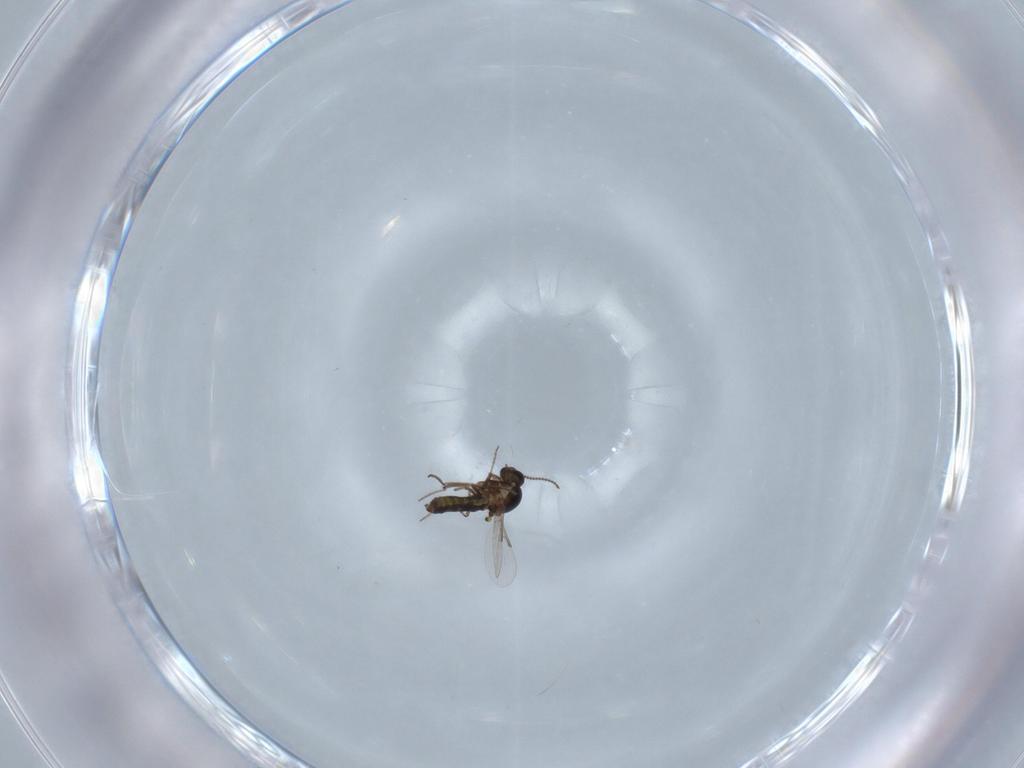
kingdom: Animalia
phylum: Arthropoda
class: Insecta
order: Diptera
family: Ceratopogonidae
